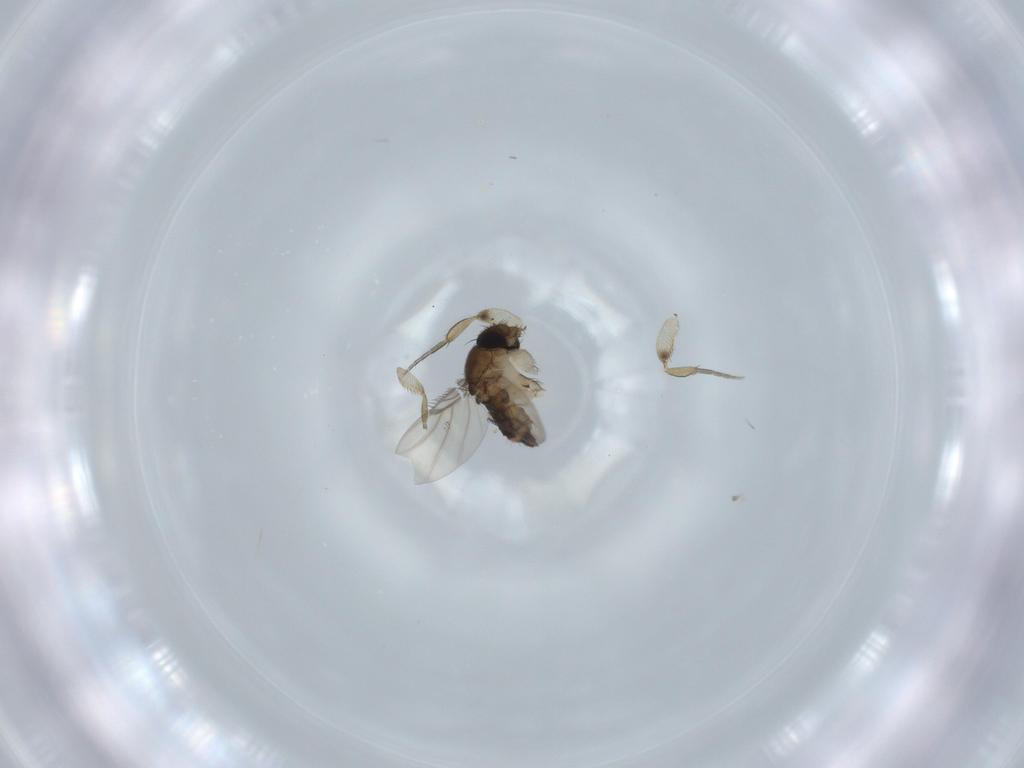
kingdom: Animalia
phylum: Arthropoda
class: Insecta
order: Diptera
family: Phoridae
